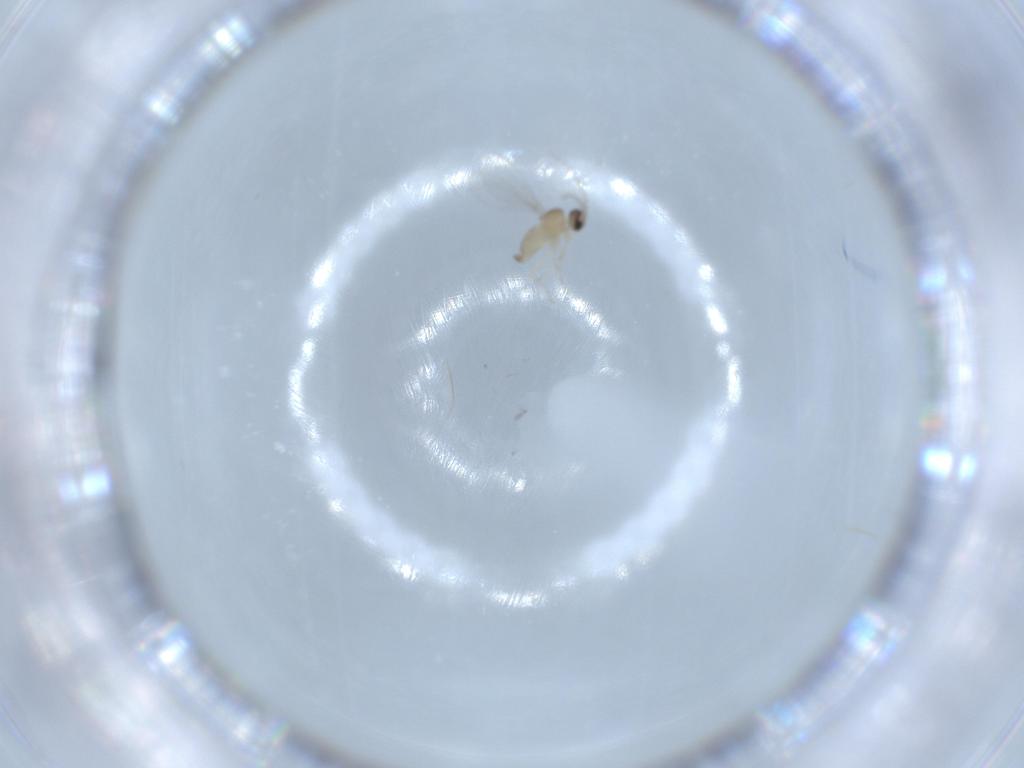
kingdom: Animalia
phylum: Arthropoda
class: Insecta
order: Diptera
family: Cecidomyiidae
